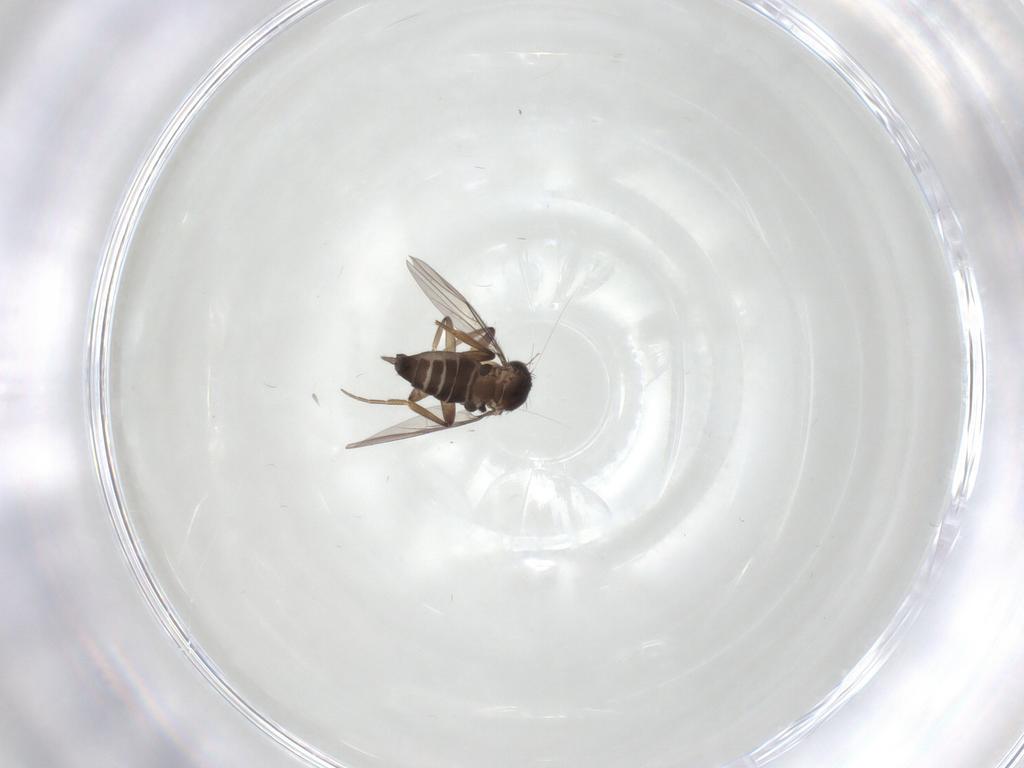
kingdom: Animalia
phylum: Arthropoda
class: Insecta
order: Diptera
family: Phoridae
